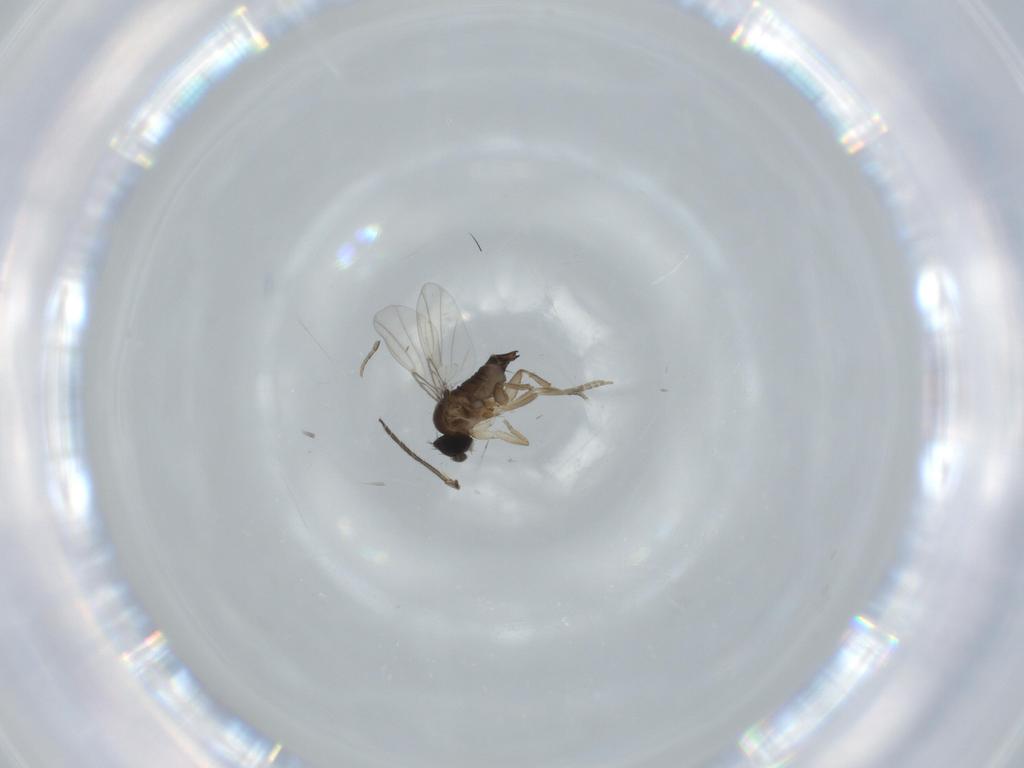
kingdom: Animalia
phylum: Arthropoda
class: Insecta
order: Diptera
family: Phoridae
